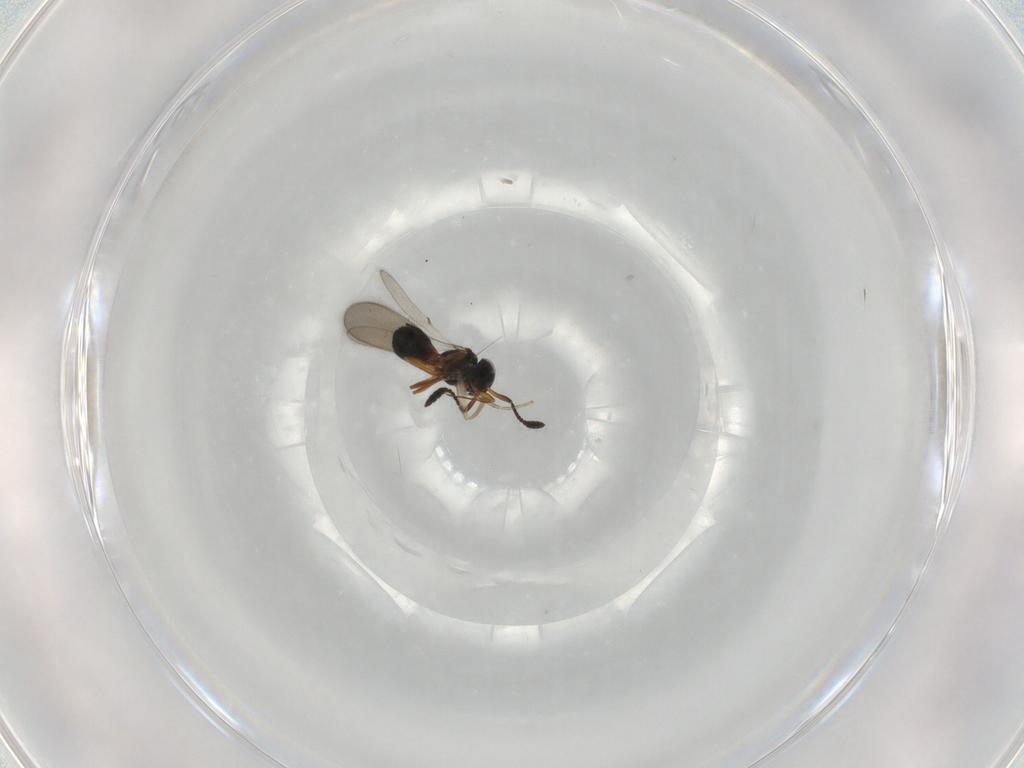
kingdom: Animalia
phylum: Arthropoda
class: Insecta
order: Hymenoptera
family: Scelionidae
